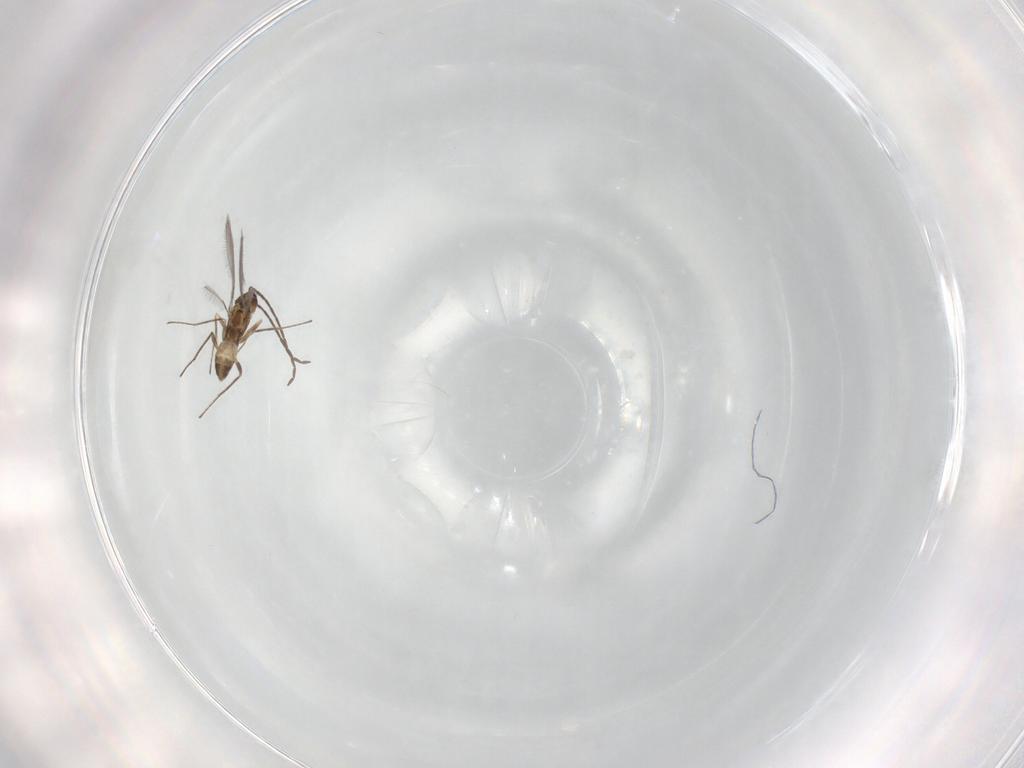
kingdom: Animalia
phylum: Arthropoda
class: Insecta
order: Hymenoptera
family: Mymaridae
